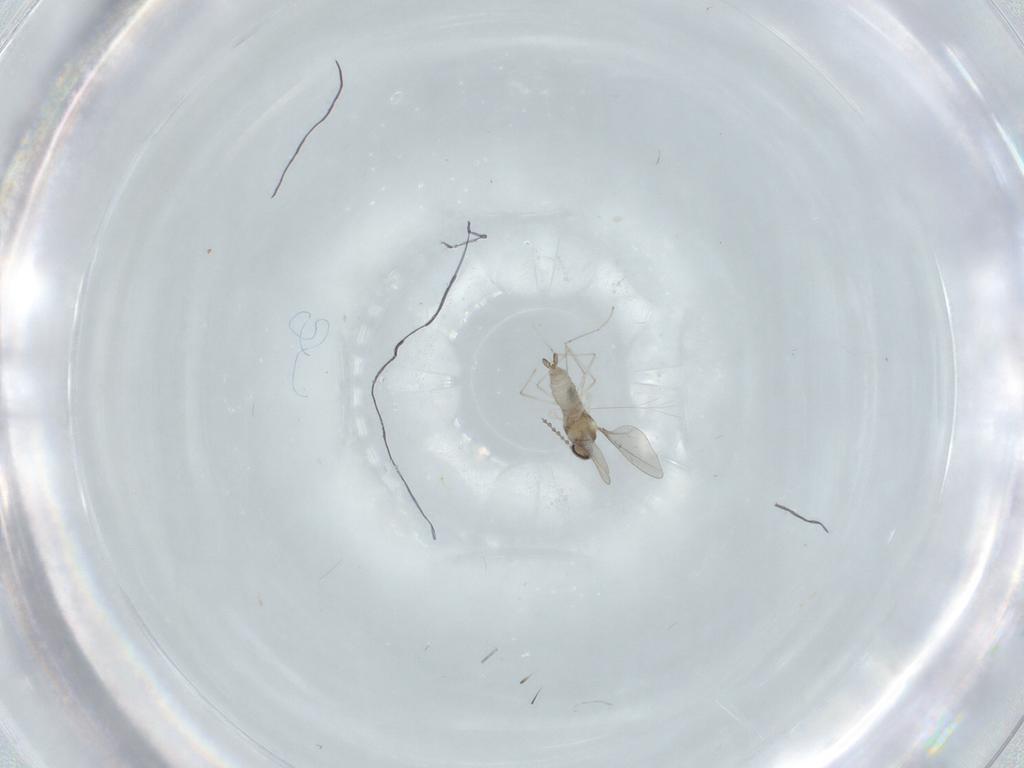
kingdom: Animalia
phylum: Arthropoda
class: Insecta
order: Diptera
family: Cecidomyiidae
